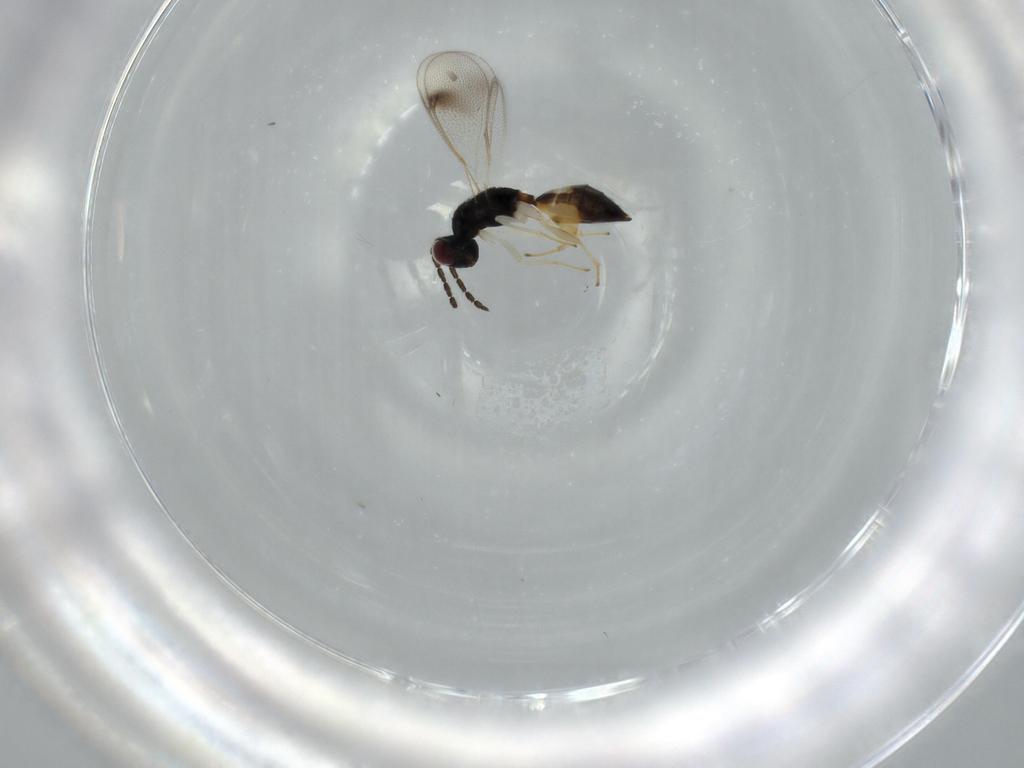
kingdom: Animalia
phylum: Arthropoda
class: Insecta
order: Hymenoptera
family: Eulophidae
